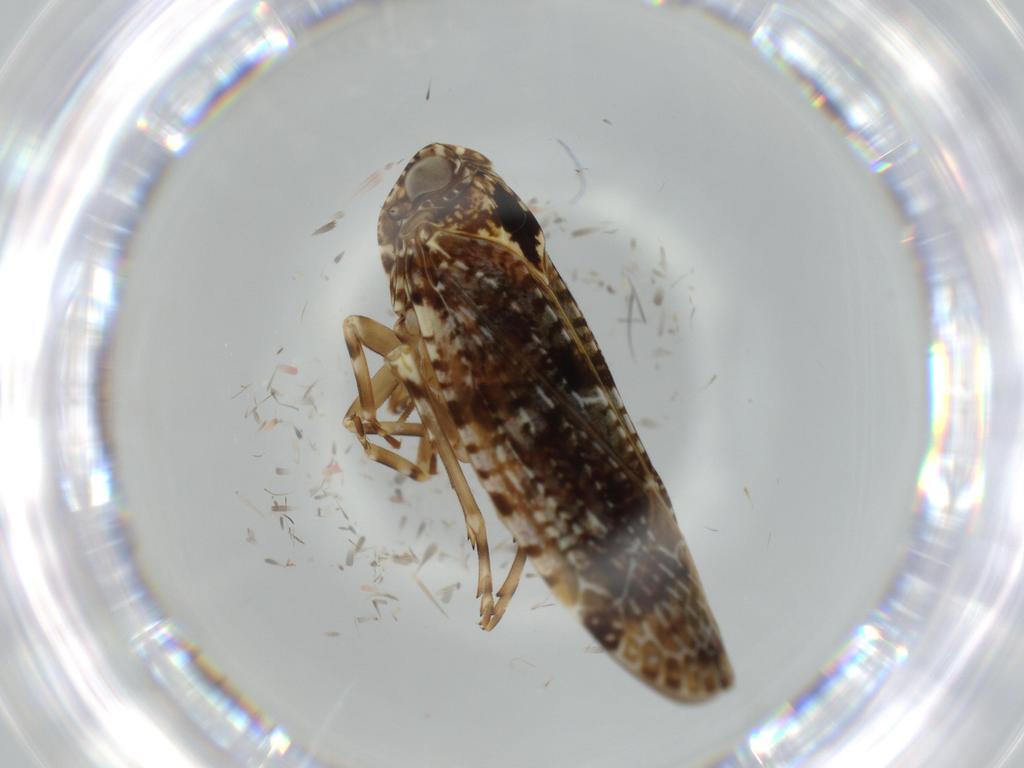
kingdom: Animalia
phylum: Arthropoda
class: Insecta
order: Hemiptera
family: Achilidae
